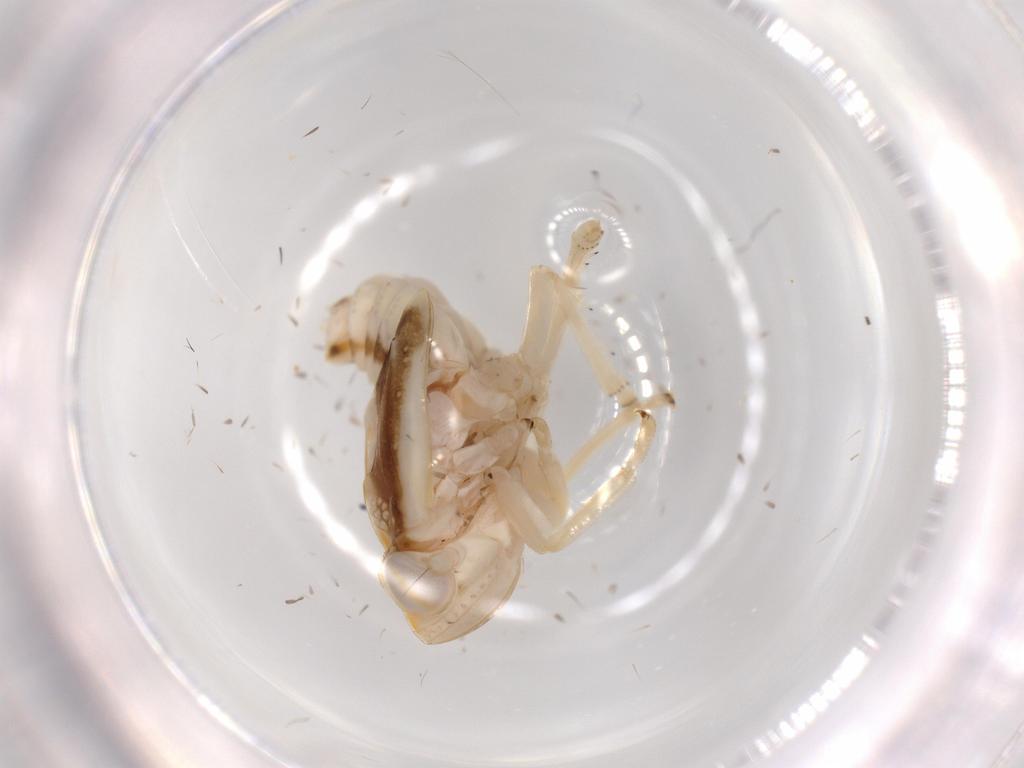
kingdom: Animalia
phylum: Arthropoda
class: Insecta
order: Hemiptera
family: Nogodinidae
